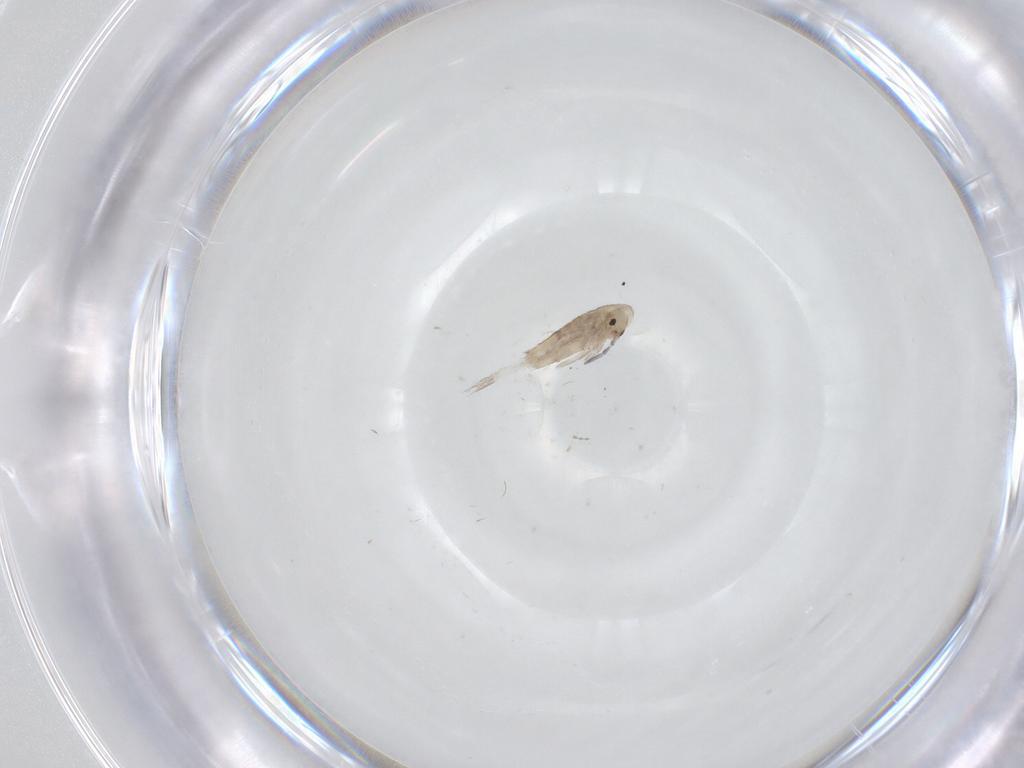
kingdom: Animalia
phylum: Arthropoda
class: Collembola
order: Entomobryomorpha
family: Entomobryidae
